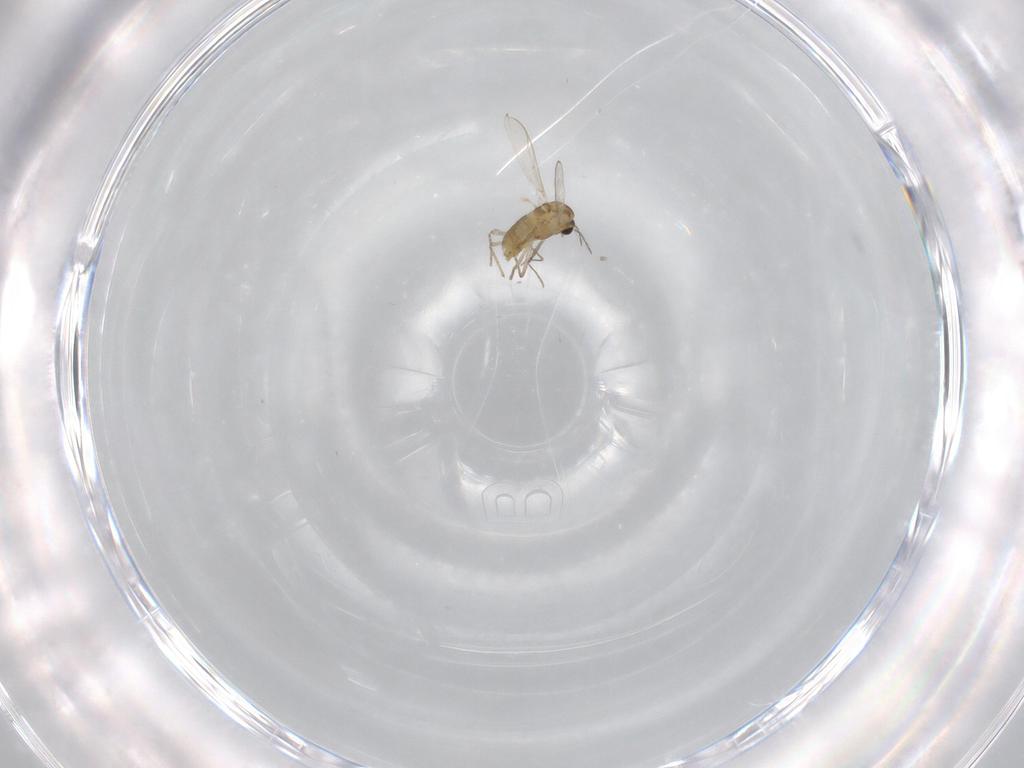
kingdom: Animalia
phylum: Arthropoda
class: Insecta
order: Diptera
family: Chironomidae
